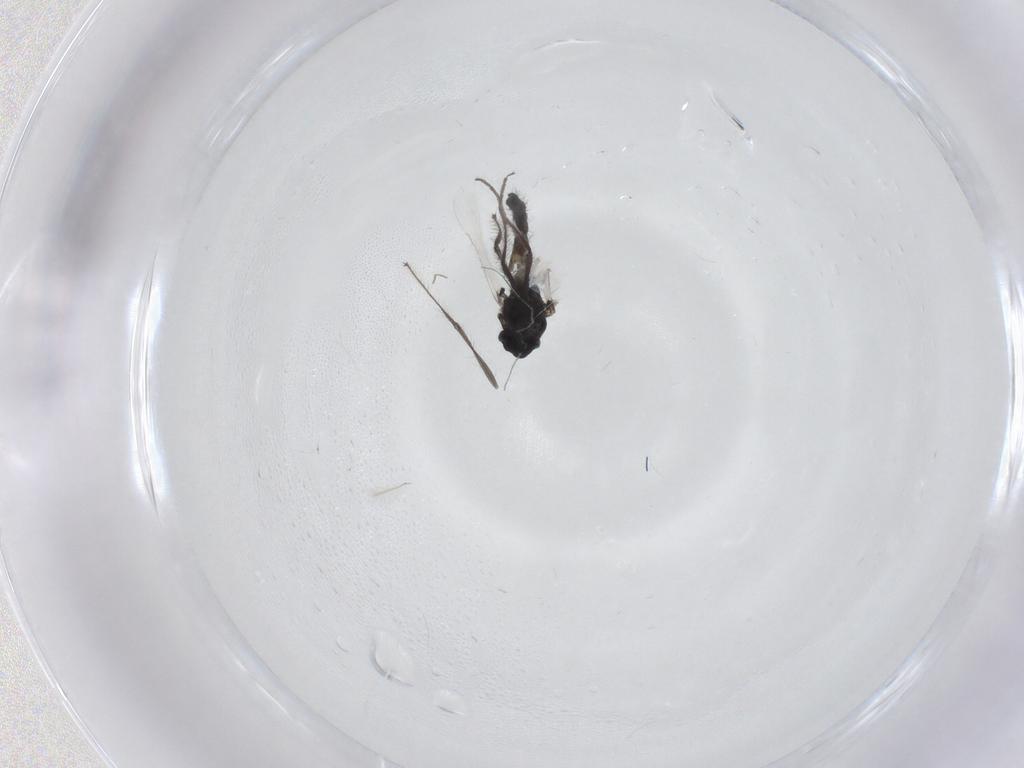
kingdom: Animalia
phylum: Arthropoda
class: Insecta
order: Diptera
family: Chironomidae
